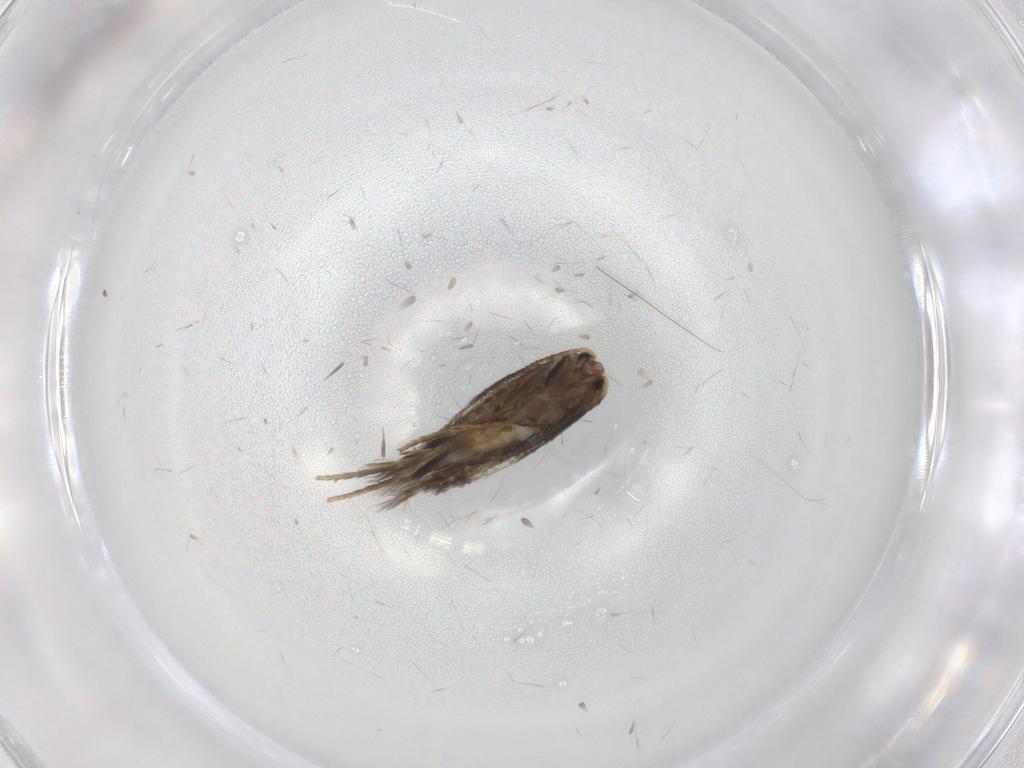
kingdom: Animalia
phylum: Arthropoda
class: Insecta
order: Lepidoptera
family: Nepticulidae
